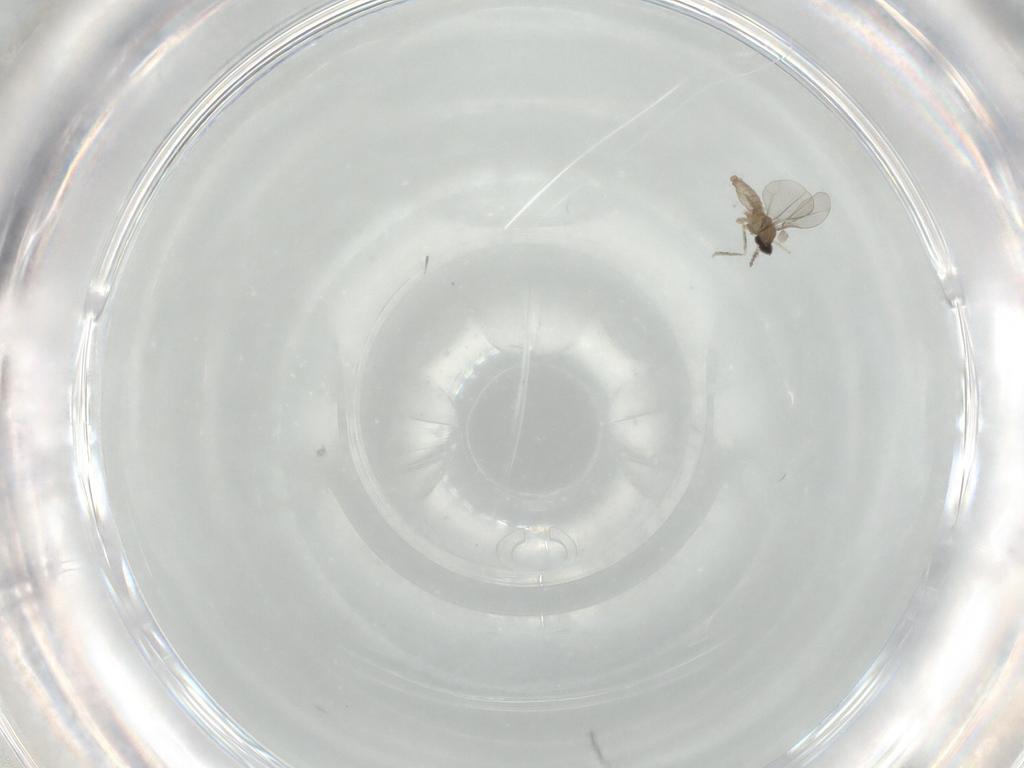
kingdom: Animalia
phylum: Arthropoda
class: Insecta
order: Diptera
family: Cecidomyiidae
